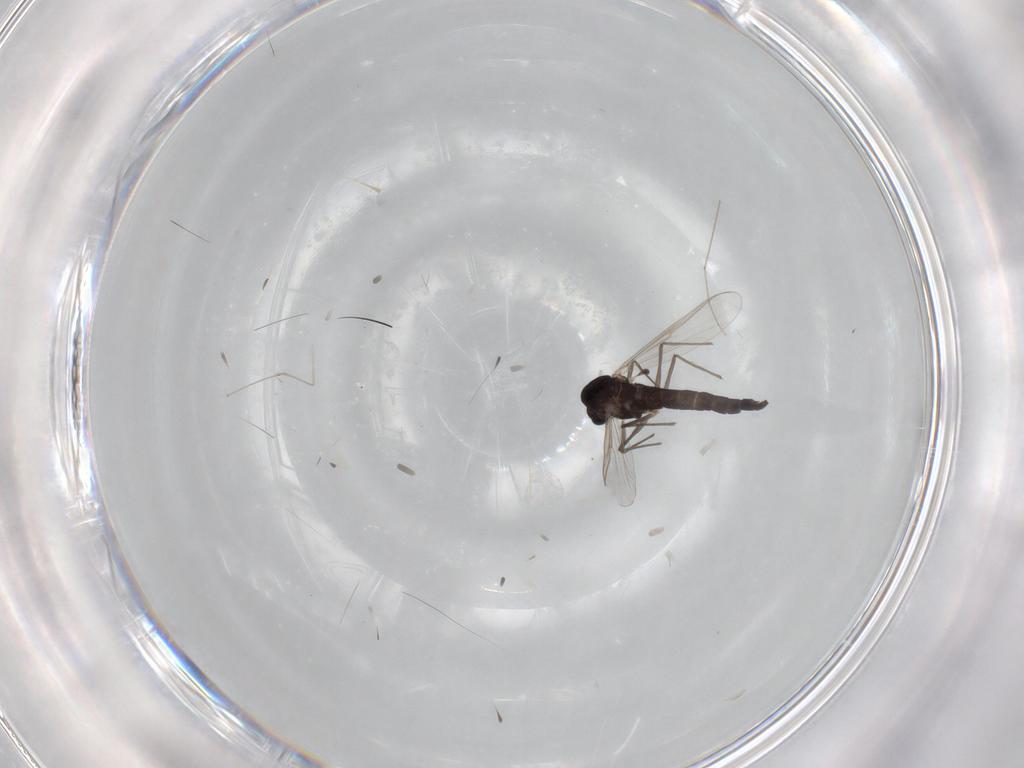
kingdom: Animalia
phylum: Arthropoda
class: Insecta
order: Diptera
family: Chironomidae
